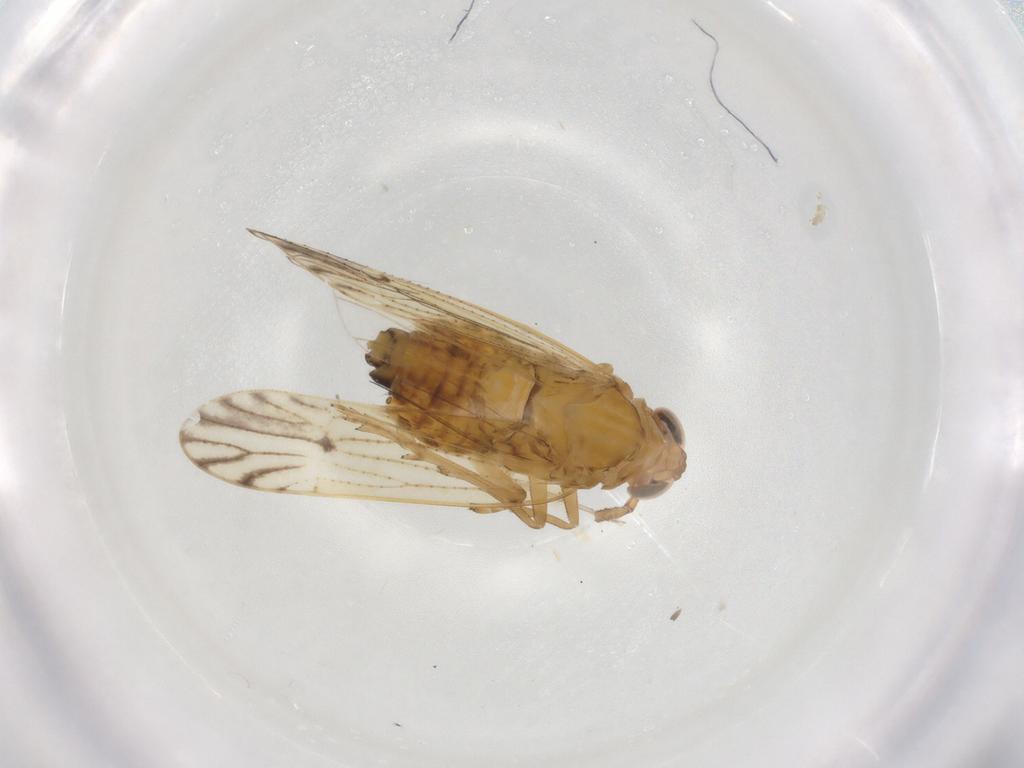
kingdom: Animalia
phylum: Arthropoda
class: Insecta
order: Hemiptera
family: Delphacidae
